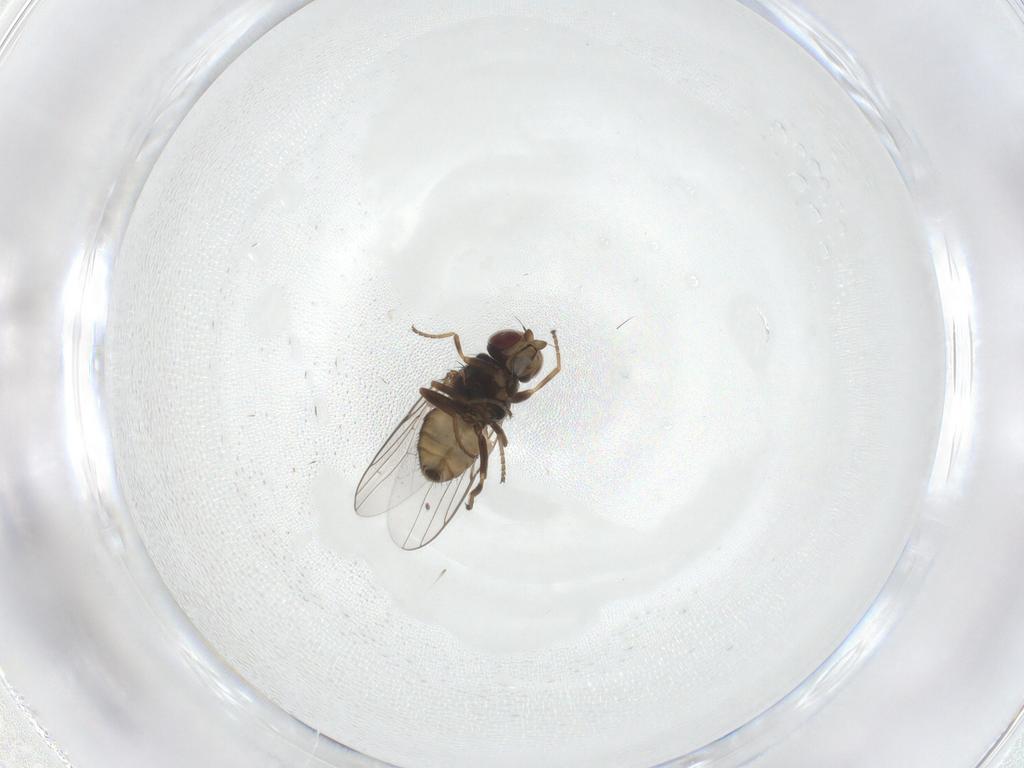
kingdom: Animalia
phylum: Arthropoda
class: Insecta
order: Diptera
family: Chloropidae
